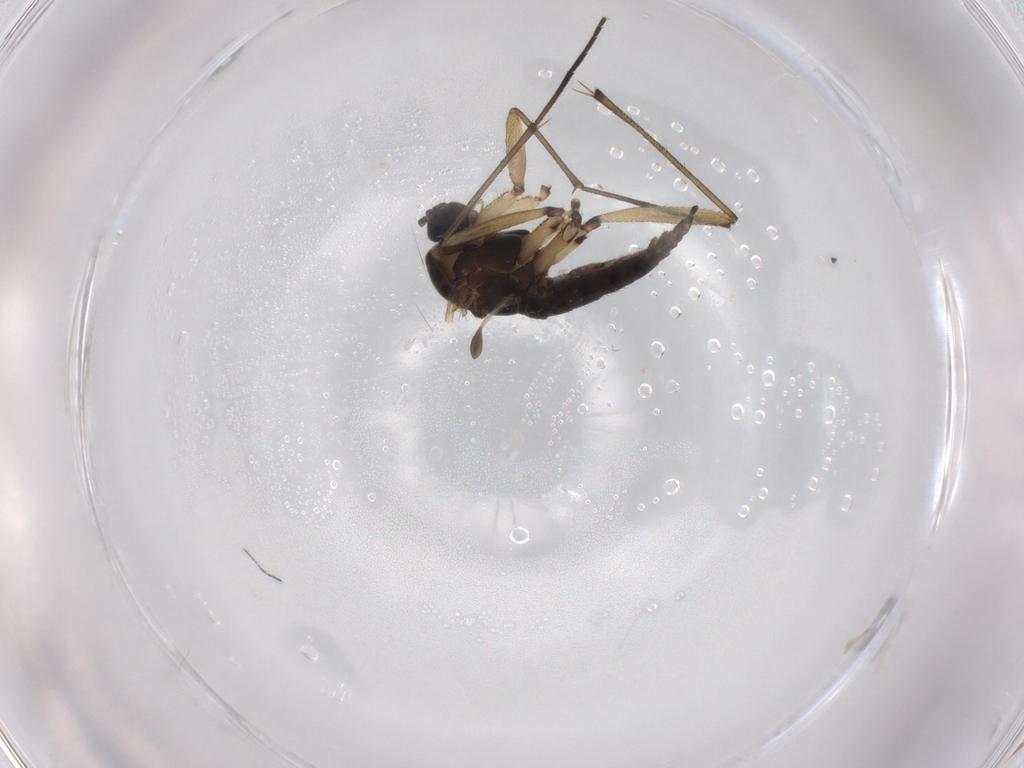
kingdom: Animalia
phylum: Arthropoda
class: Insecta
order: Diptera
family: Sciaridae
